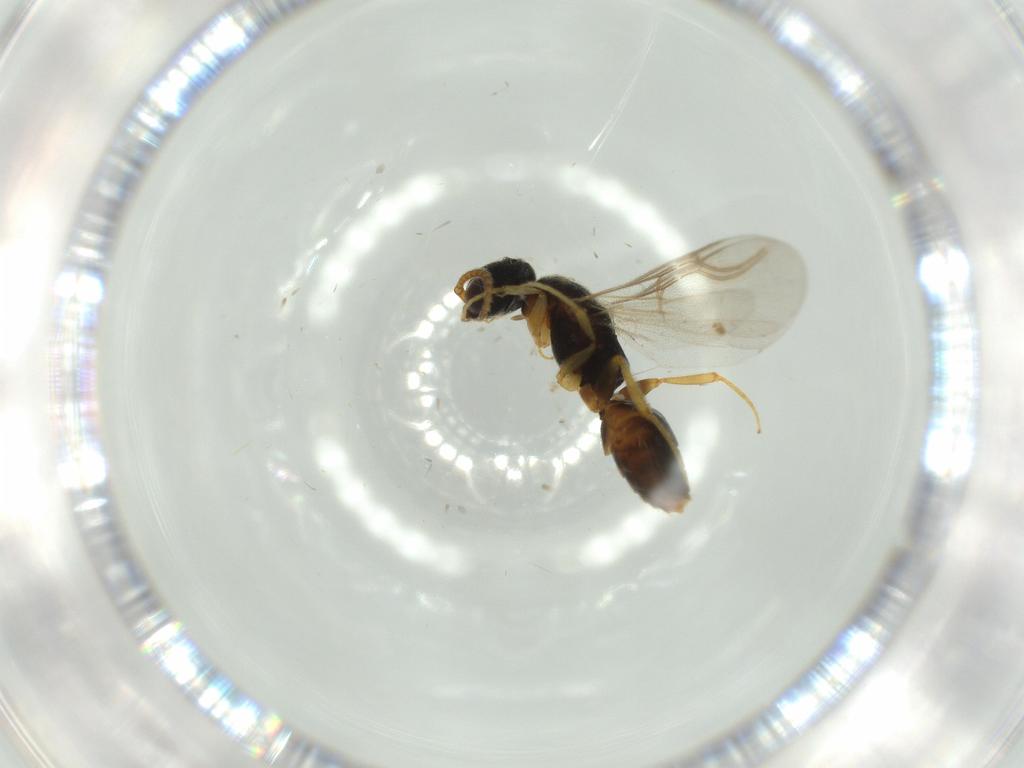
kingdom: Animalia
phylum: Arthropoda
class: Insecta
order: Hymenoptera
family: Bethylidae
